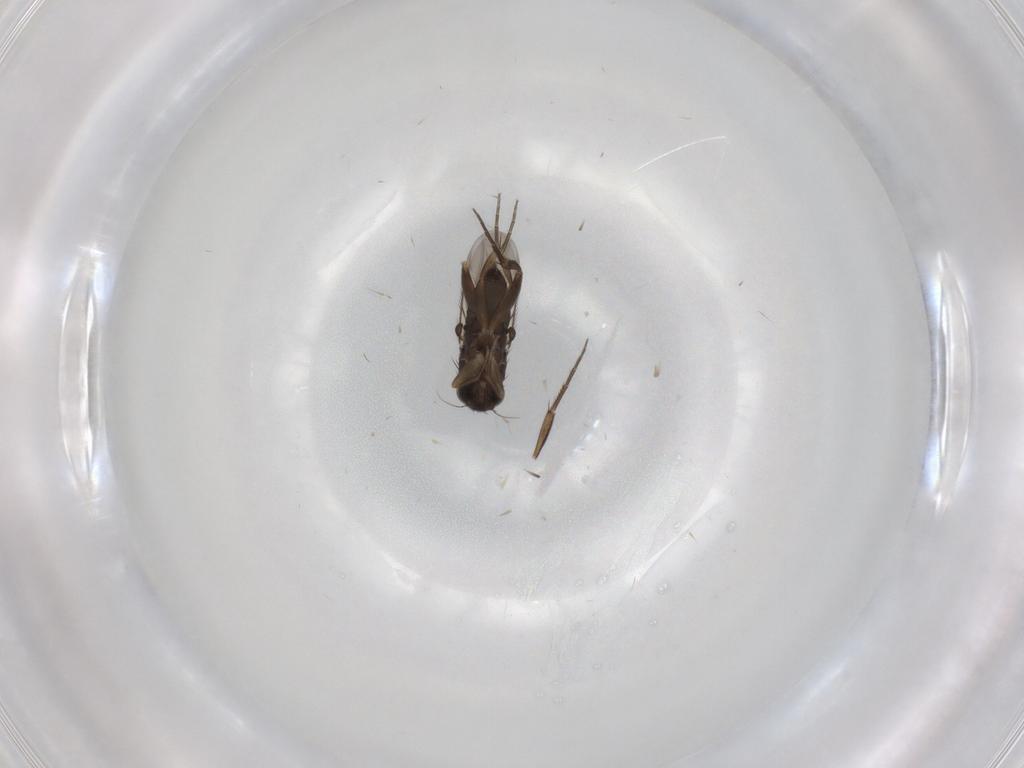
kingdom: Animalia
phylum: Arthropoda
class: Insecta
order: Diptera
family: Phoridae
